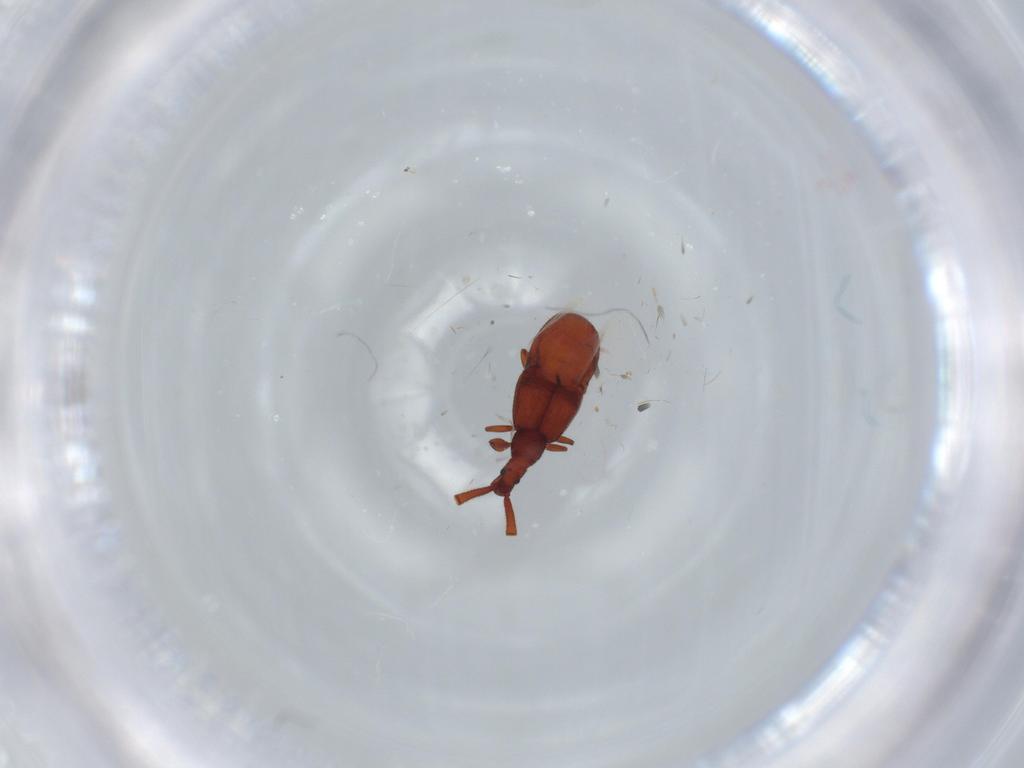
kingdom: Animalia
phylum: Arthropoda
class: Insecta
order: Coleoptera
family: Staphylinidae
